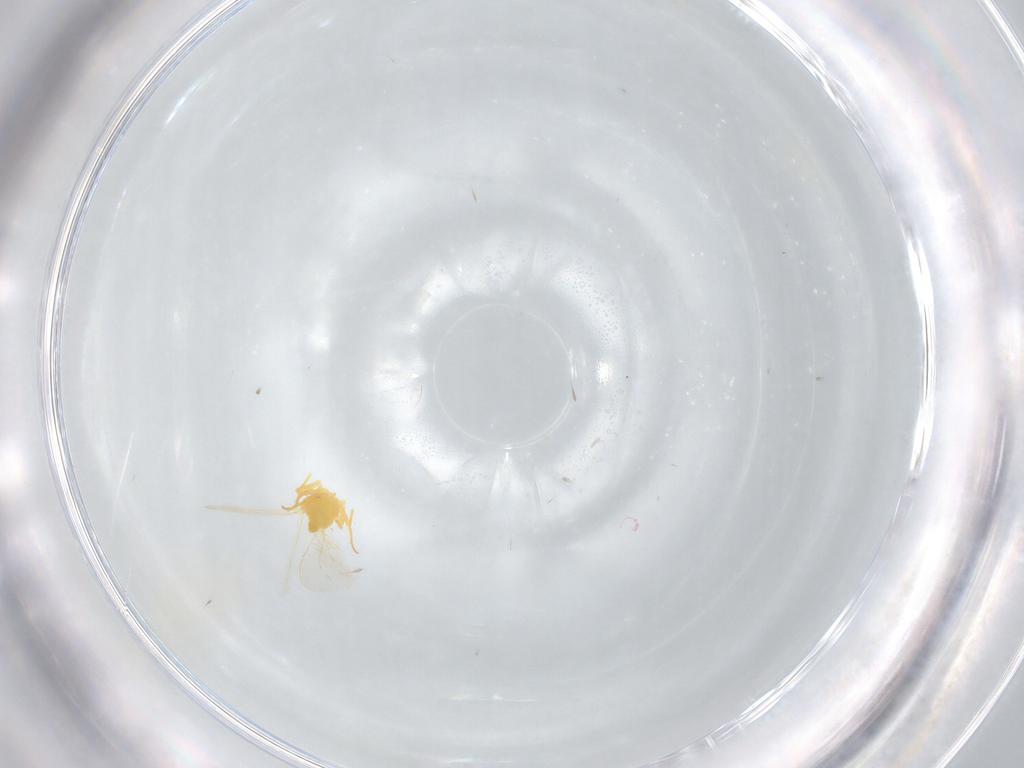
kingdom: Animalia
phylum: Arthropoda
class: Insecta
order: Hemiptera
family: Aleyrodidae
